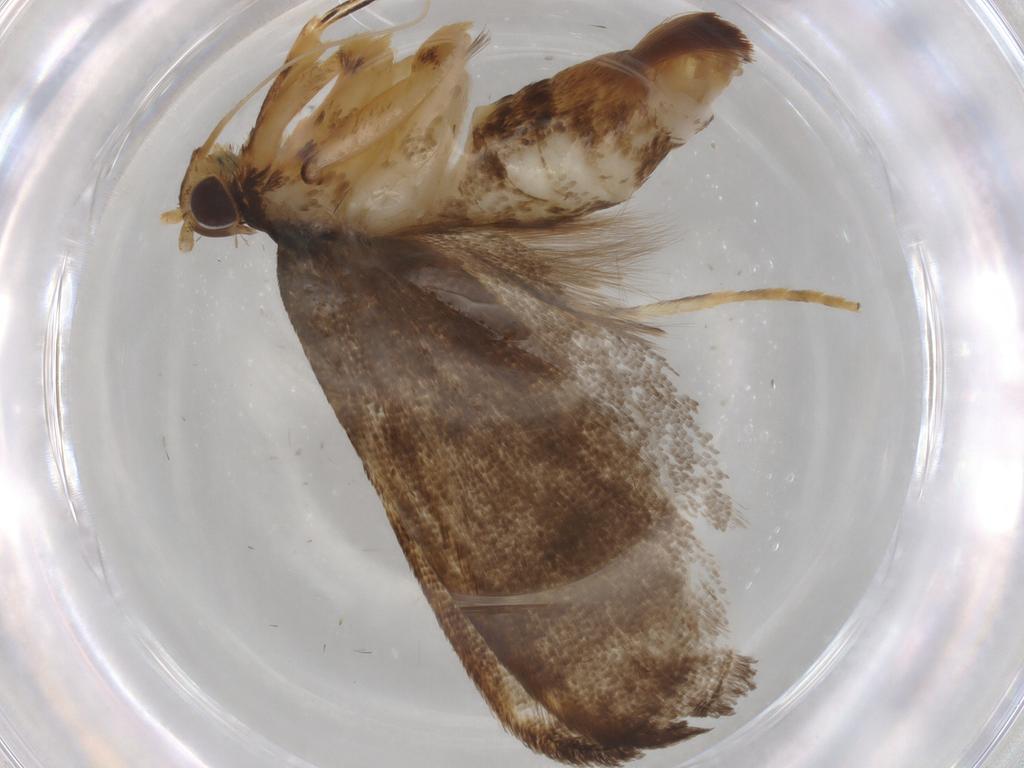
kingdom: Animalia
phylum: Arthropoda
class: Insecta
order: Lepidoptera
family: Lecithoceridae
